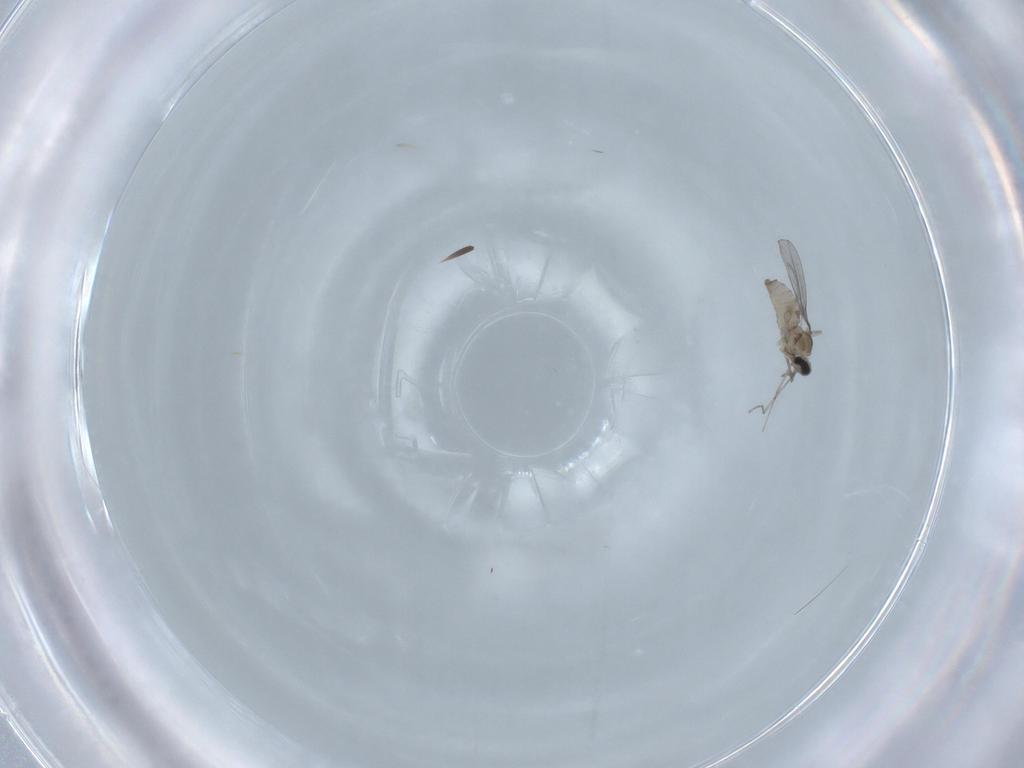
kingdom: Animalia
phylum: Arthropoda
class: Insecta
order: Diptera
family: Cecidomyiidae
